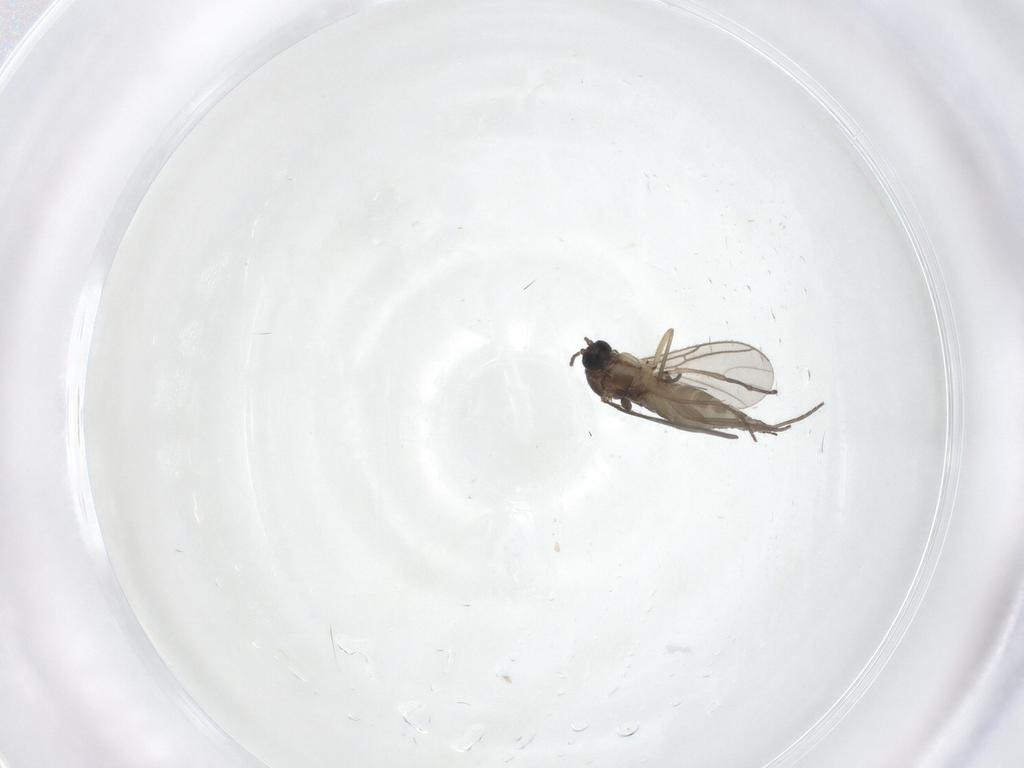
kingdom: Animalia
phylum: Arthropoda
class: Insecta
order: Diptera
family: Sciaridae
